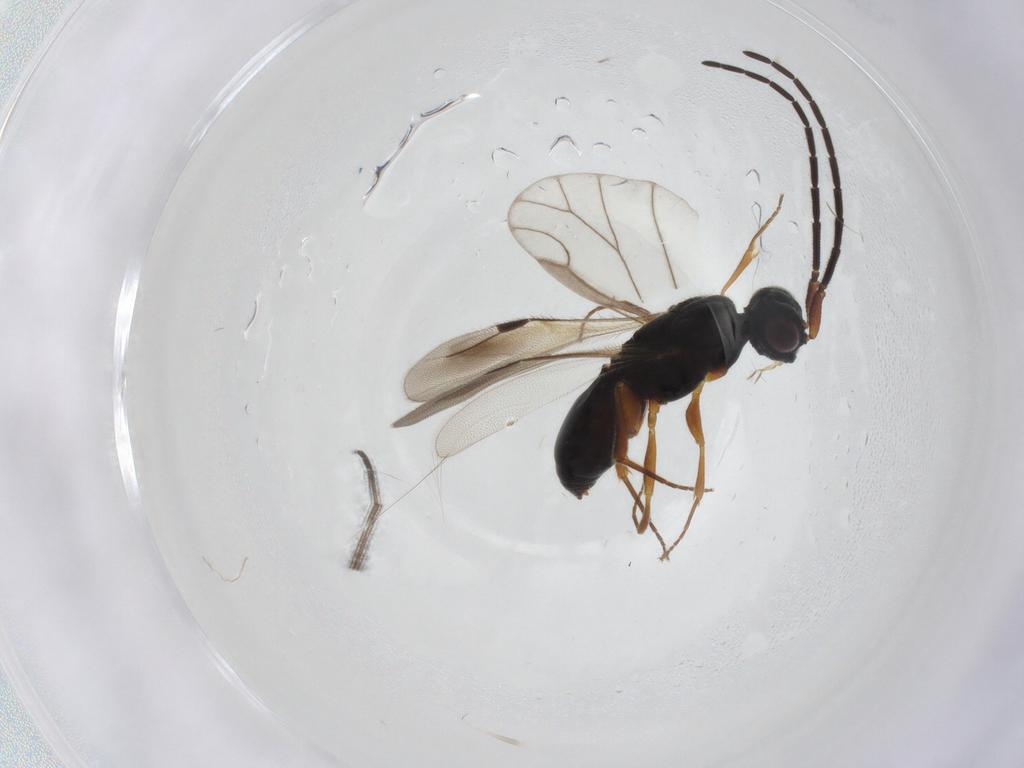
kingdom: Animalia
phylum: Arthropoda
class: Insecta
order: Hymenoptera
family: Megaspilidae
